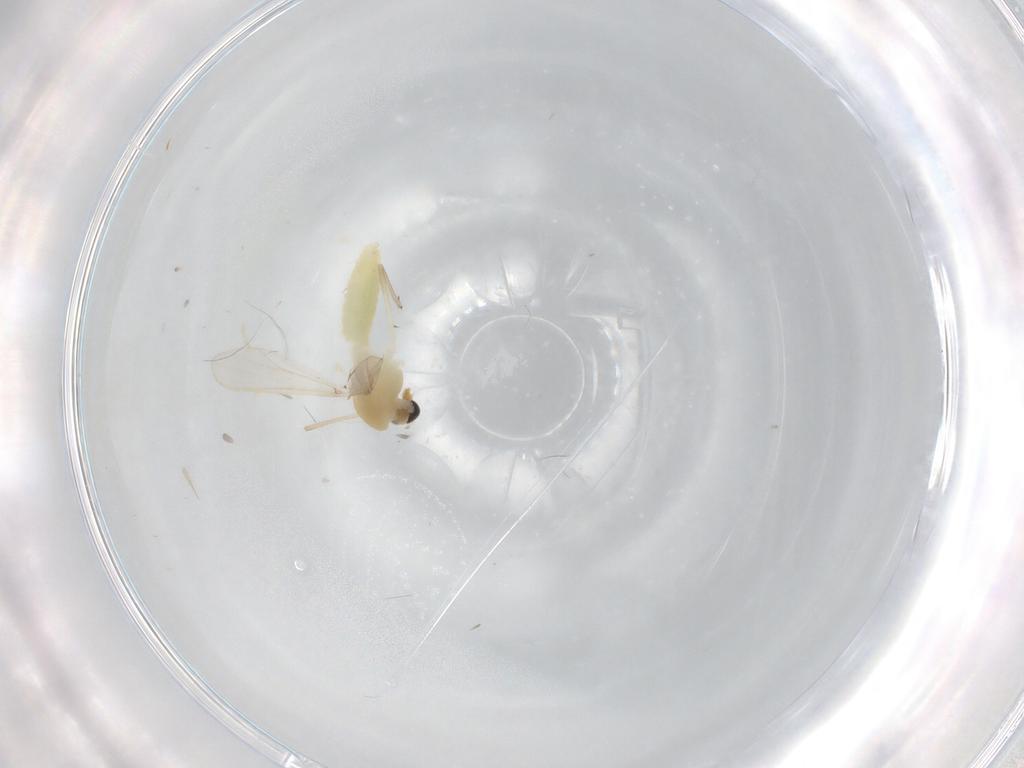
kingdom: Animalia
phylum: Arthropoda
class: Insecta
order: Diptera
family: Chironomidae
